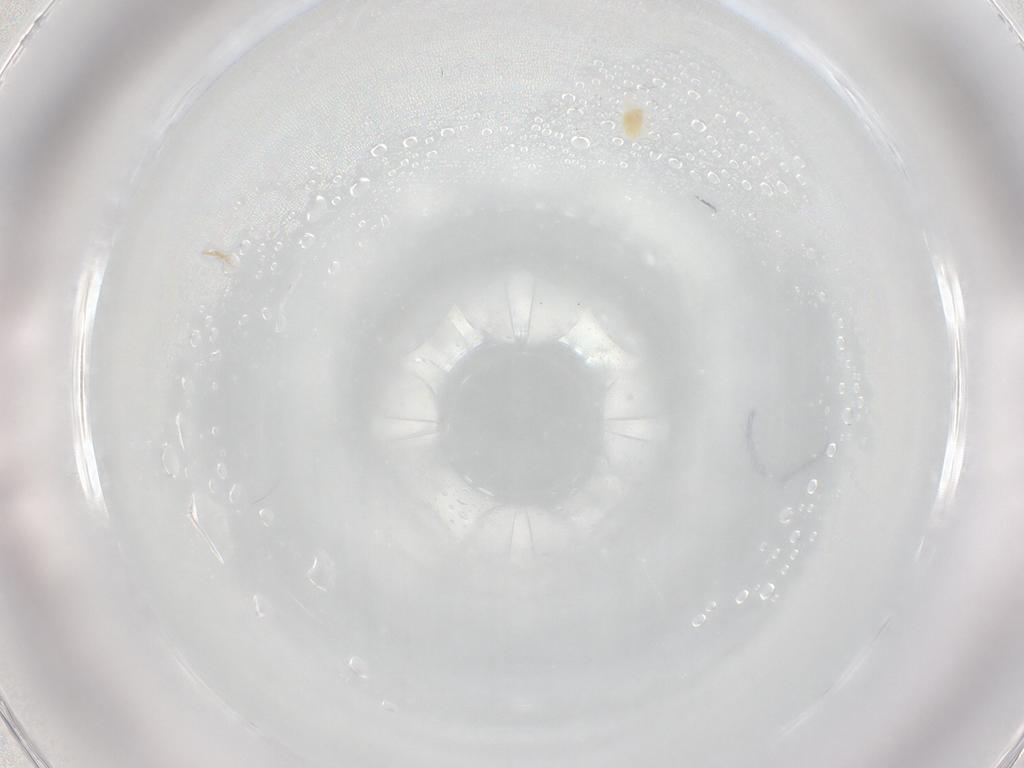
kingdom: Animalia
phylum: Arthropoda
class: Arachnida
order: Trombidiformes
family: Eupodidae
